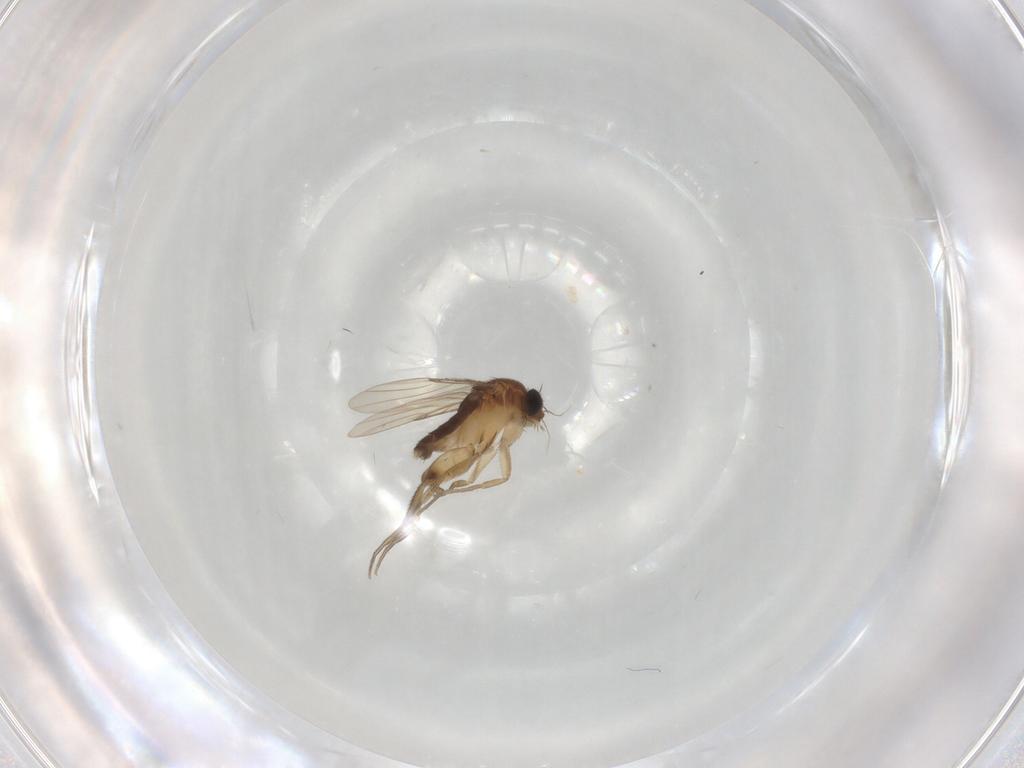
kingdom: Animalia
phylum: Arthropoda
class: Insecta
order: Diptera
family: Phoridae
